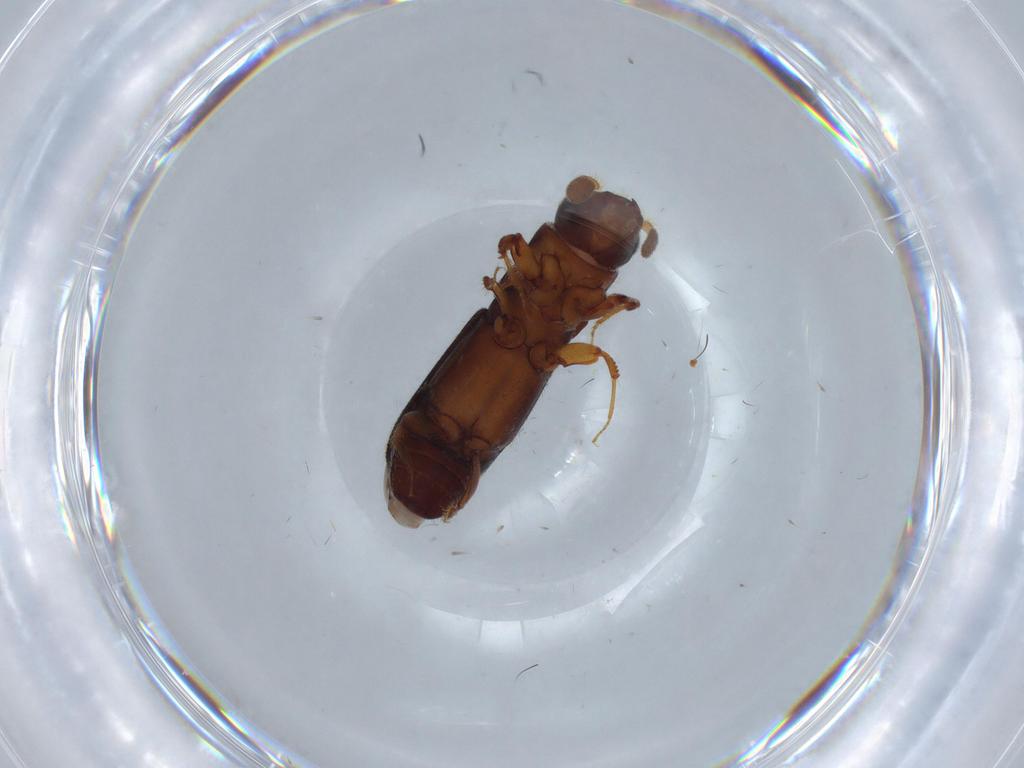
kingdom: Animalia
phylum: Arthropoda
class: Insecta
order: Coleoptera
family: Curculionidae
